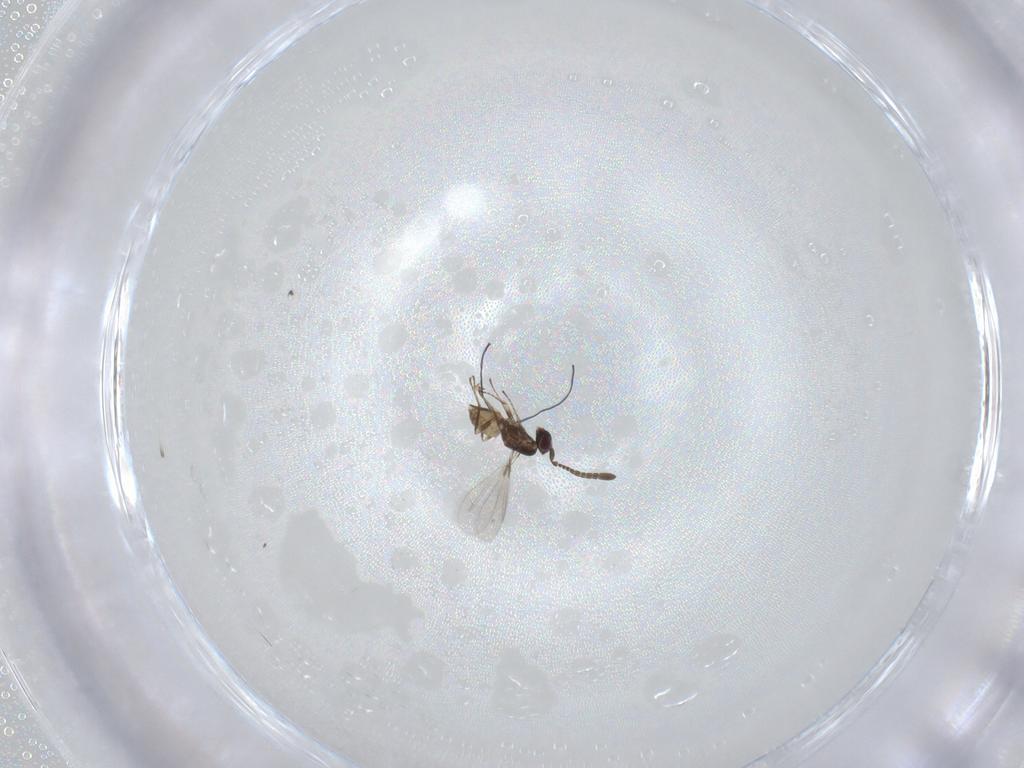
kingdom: Animalia
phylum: Arthropoda
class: Insecta
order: Hymenoptera
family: Mymaridae
